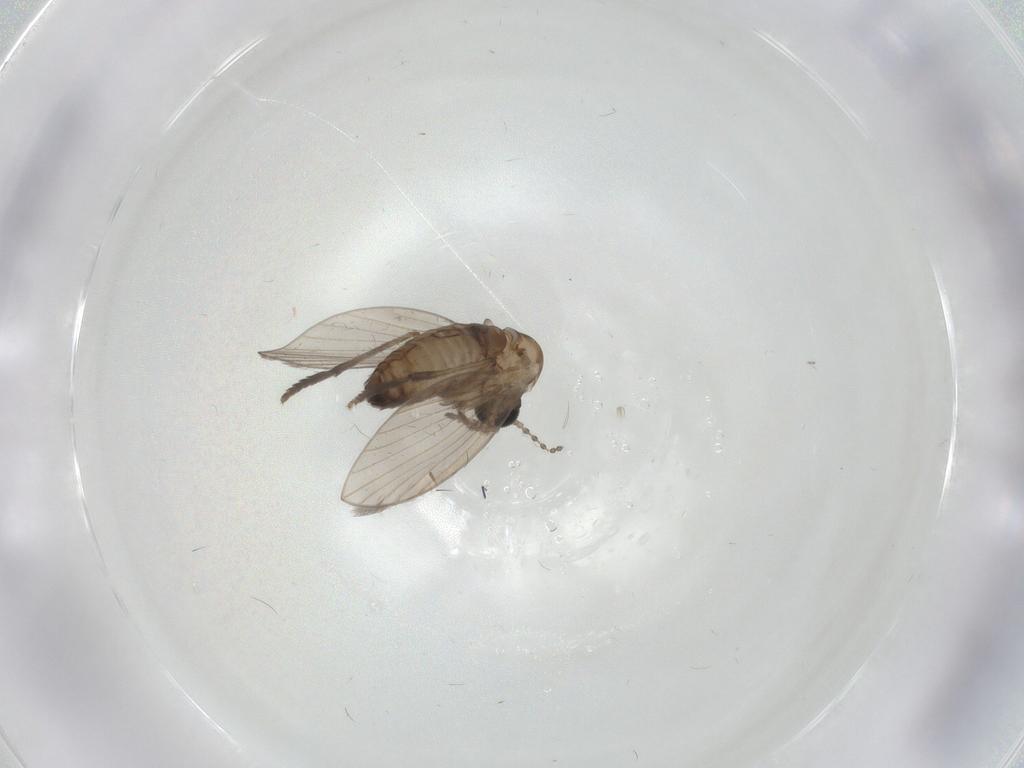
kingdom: Animalia
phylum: Arthropoda
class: Insecta
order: Diptera
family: Psychodidae
